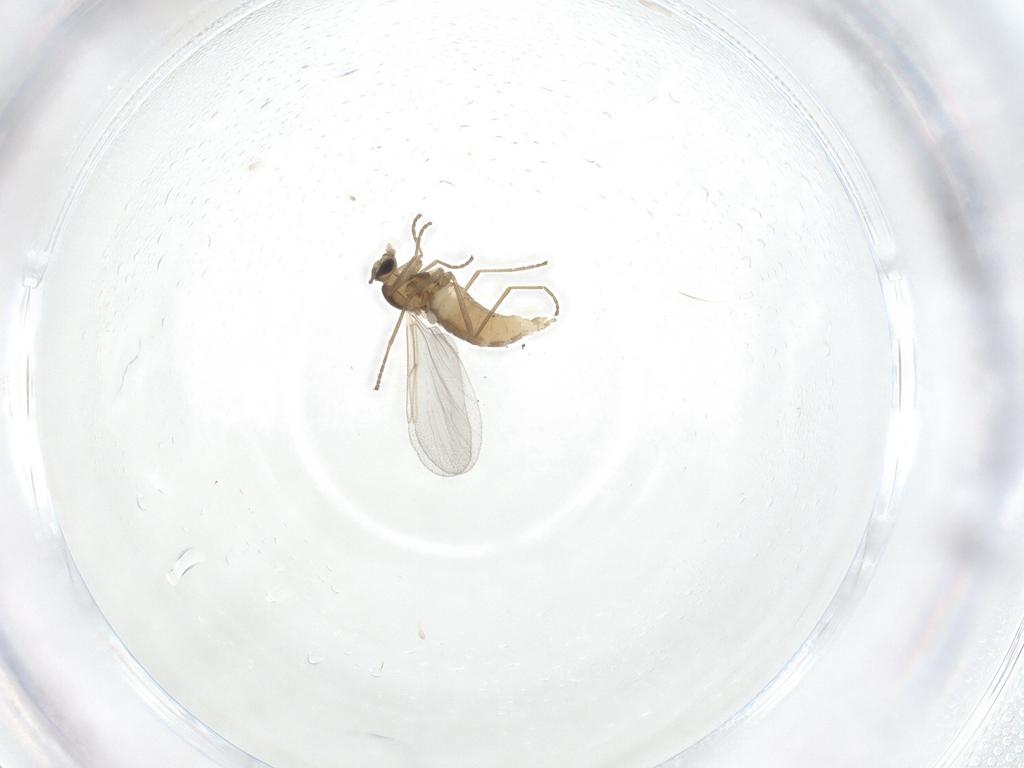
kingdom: Animalia
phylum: Arthropoda
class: Insecta
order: Diptera
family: Cecidomyiidae
